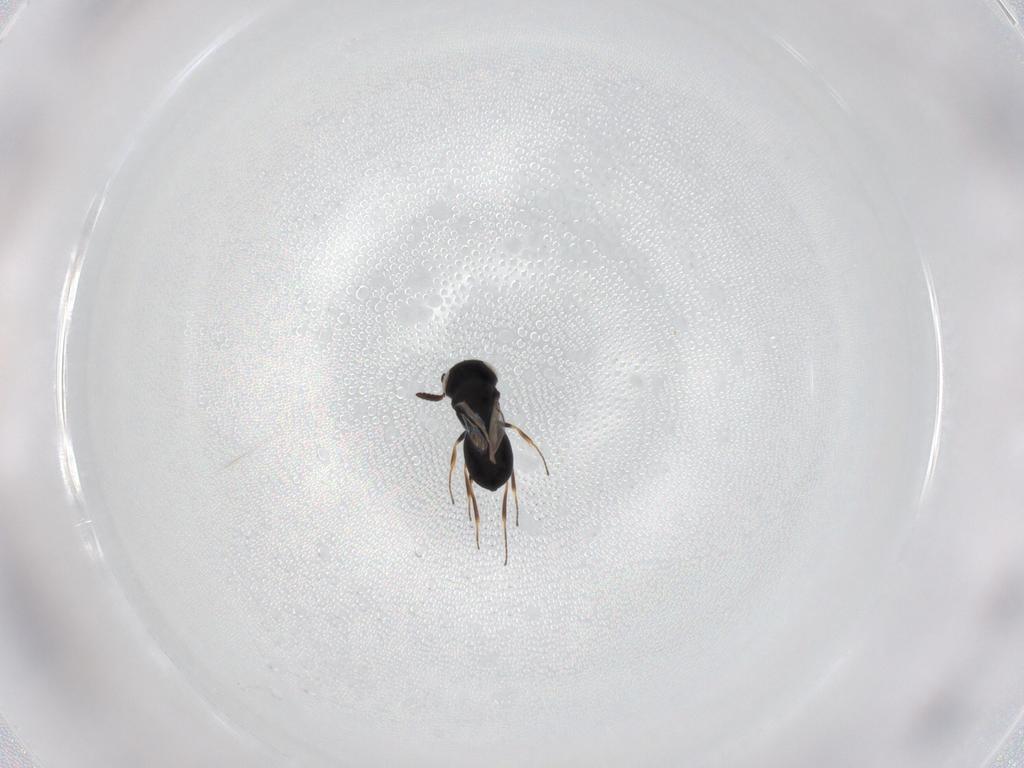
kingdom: Animalia
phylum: Arthropoda
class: Insecta
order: Hymenoptera
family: Scelionidae
